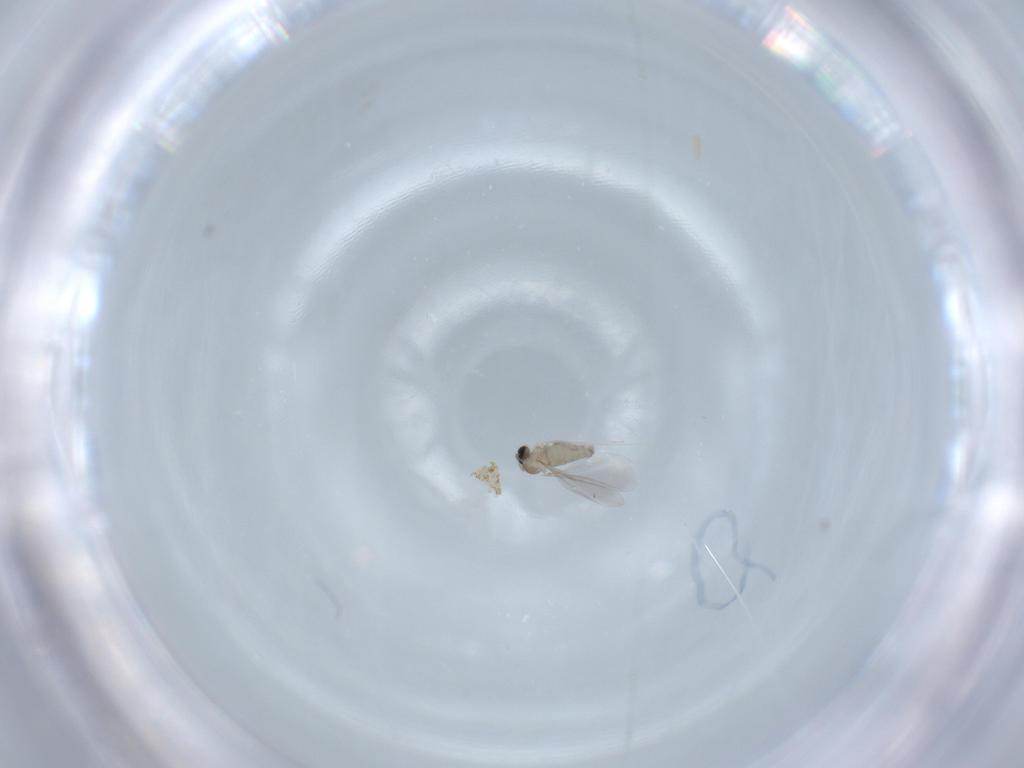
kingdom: Animalia
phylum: Arthropoda
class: Insecta
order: Diptera
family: Cecidomyiidae
